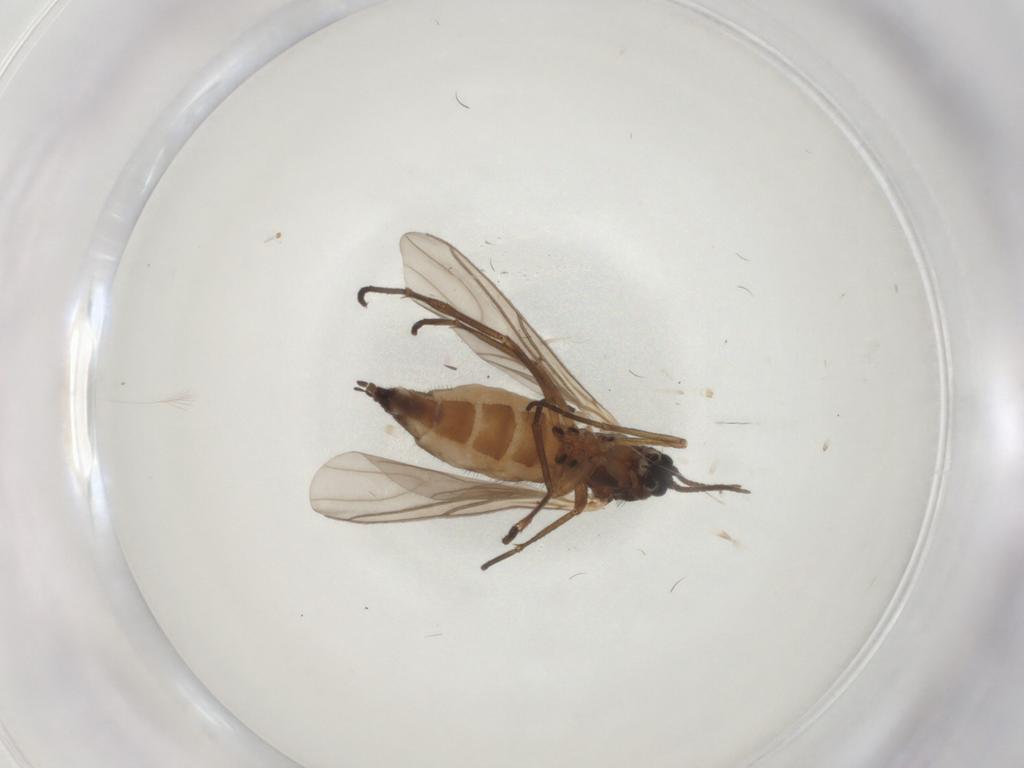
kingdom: Animalia
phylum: Arthropoda
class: Insecta
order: Diptera
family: Sciaridae
